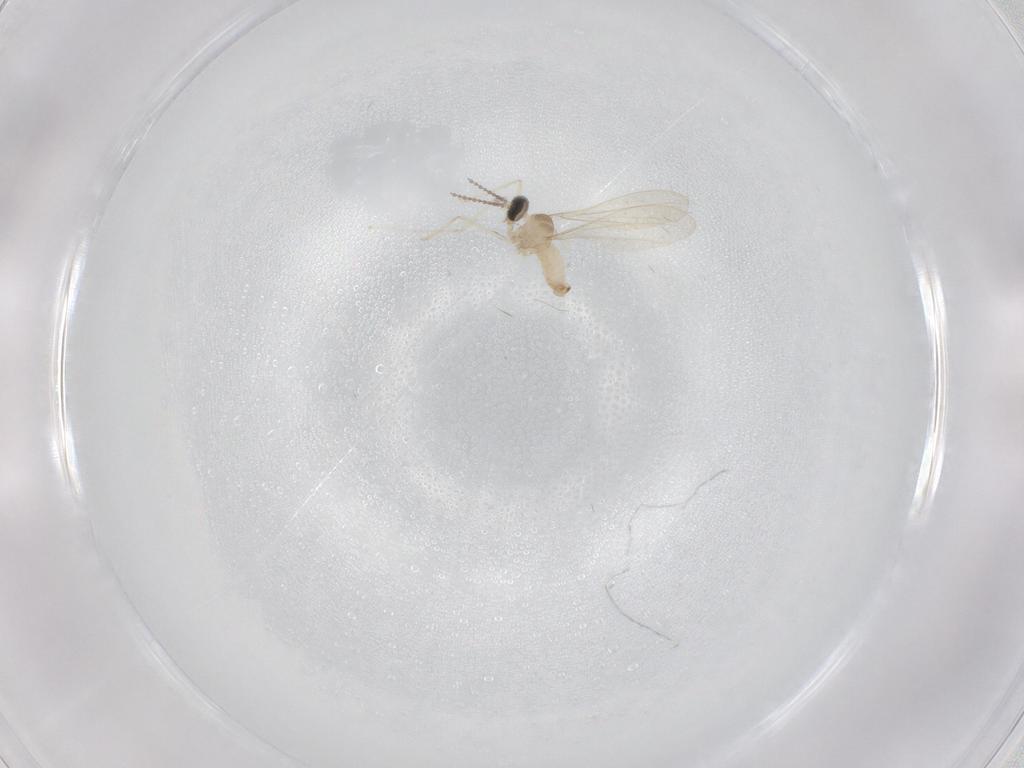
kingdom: Animalia
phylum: Arthropoda
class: Insecta
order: Diptera
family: Cecidomyiidae
